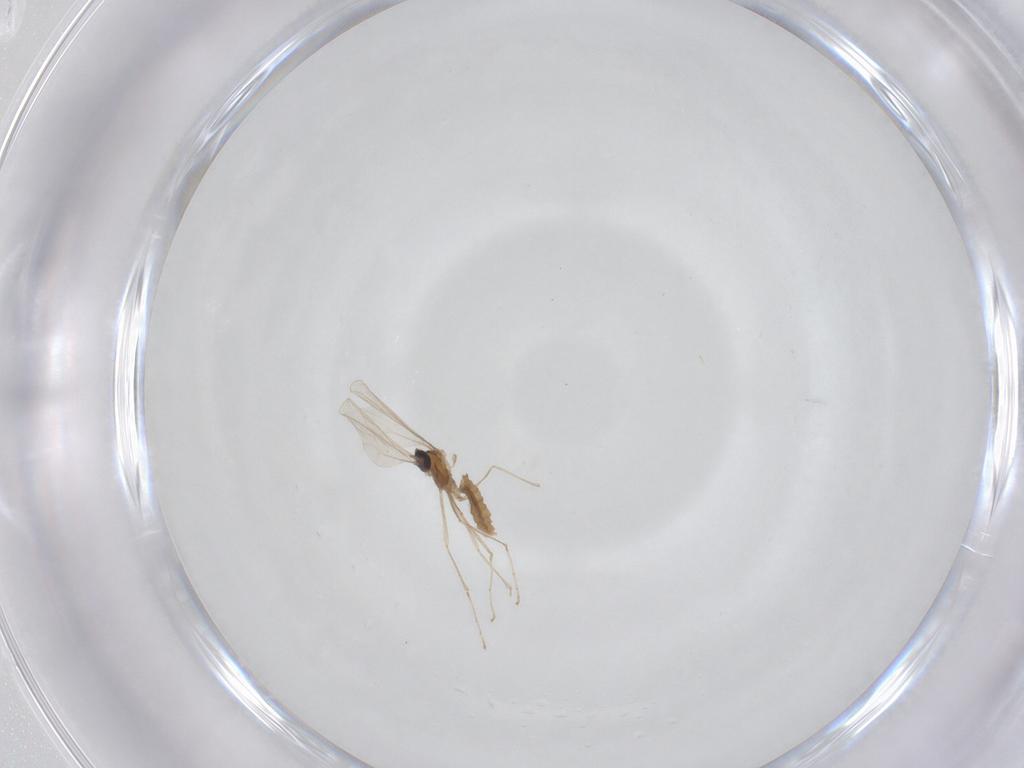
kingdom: Animalia
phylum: Arthropoda
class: Insecta
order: Diptera
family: Cecidomyiidae
